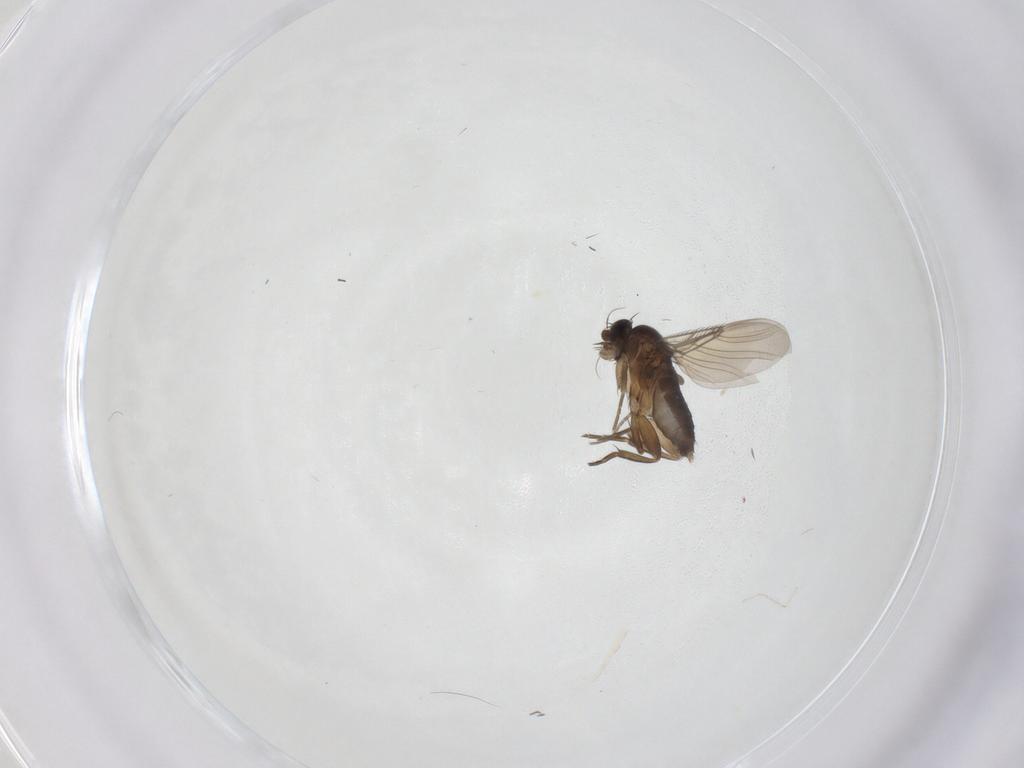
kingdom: Animalia
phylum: Arthropoda
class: Insecta
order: Diptera
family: Phoridae
